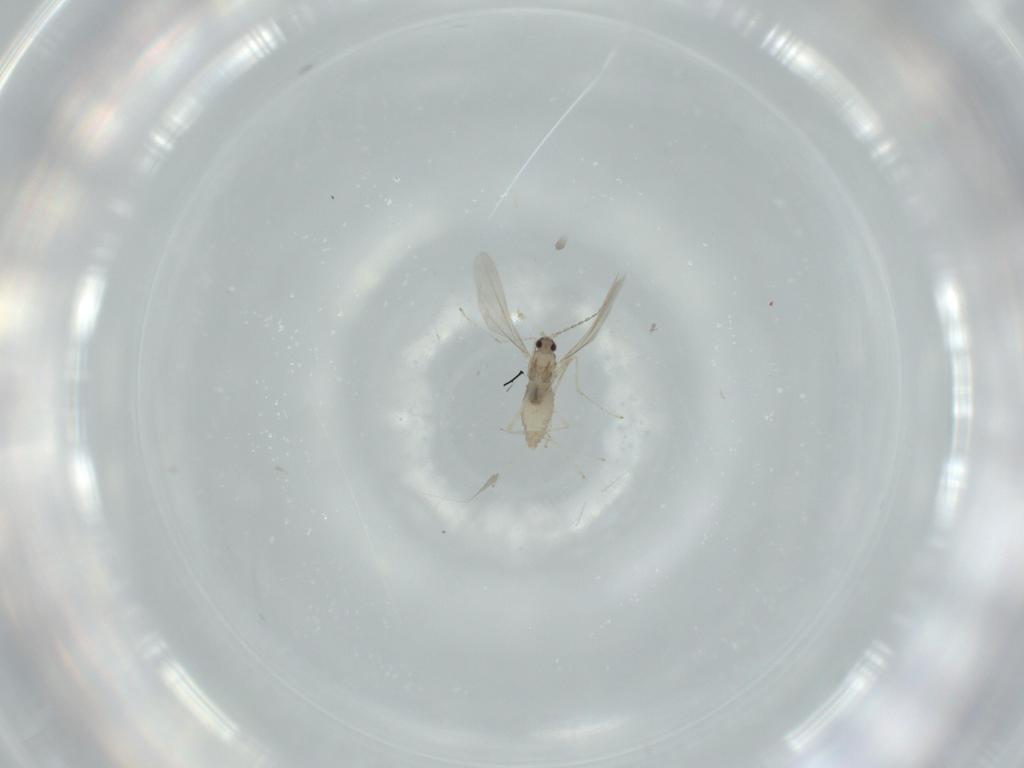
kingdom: Animalia
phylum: Arthropoda
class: Insecta
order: Diptera
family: Cecidomyiidae
